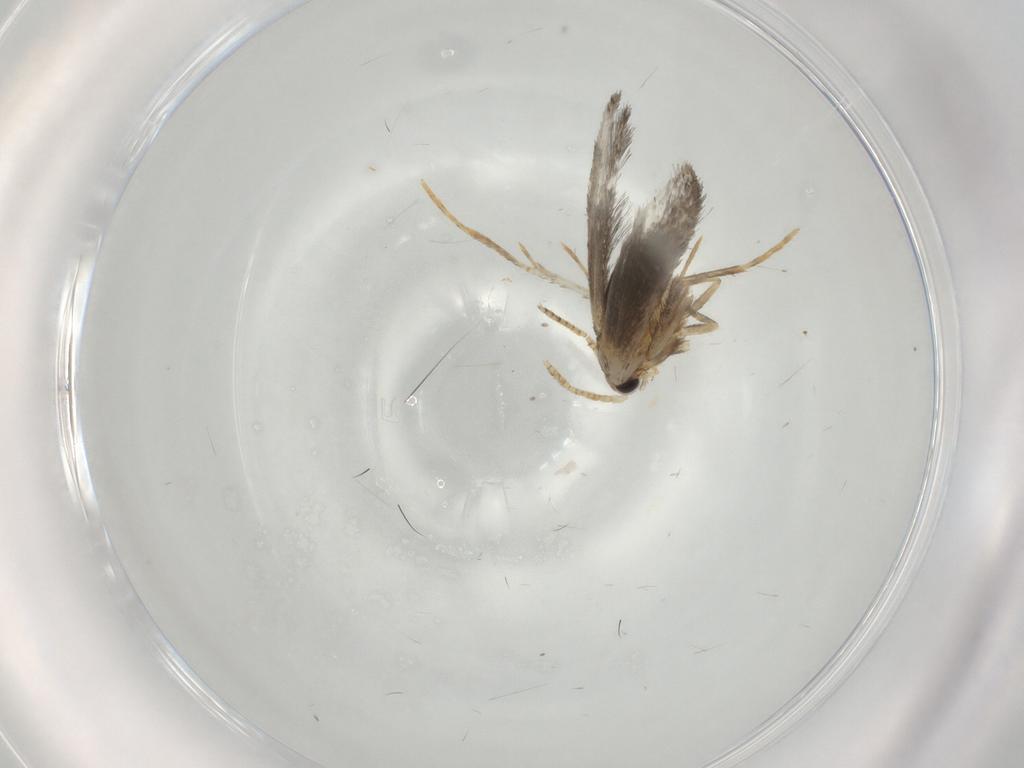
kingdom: Animalia
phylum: Arthropoda
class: Insecta
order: Lepidoptera
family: Tineidae
